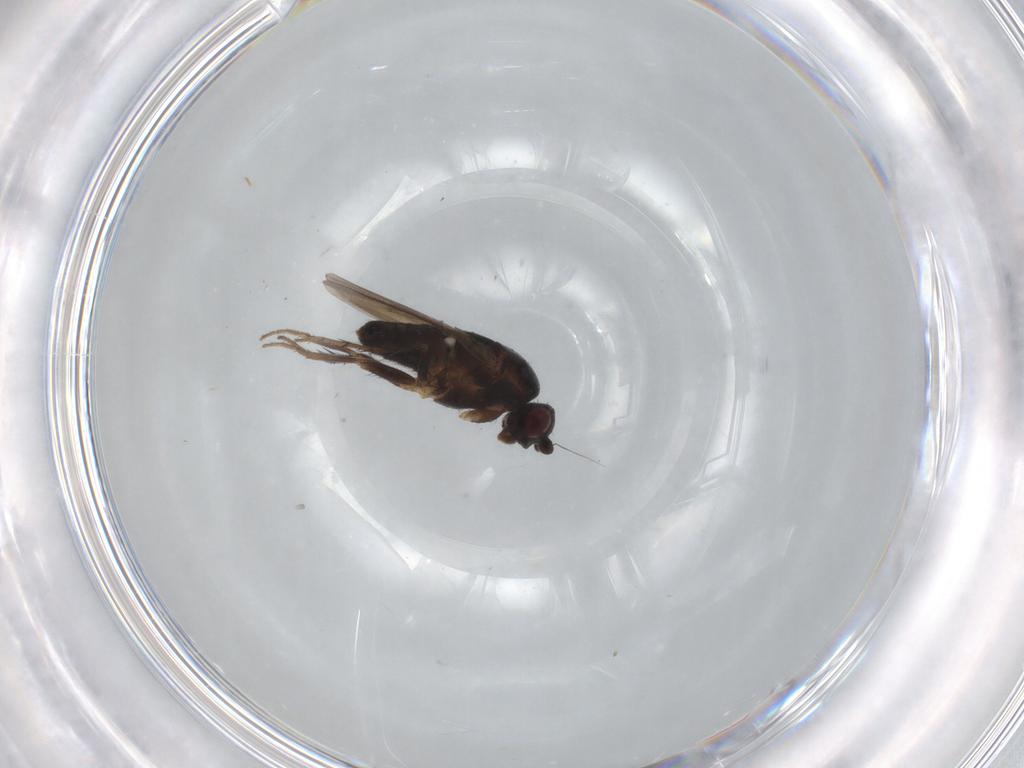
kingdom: Animalia
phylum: Arthropoda
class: Insecta
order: Diptera
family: Sphaeroceridae
